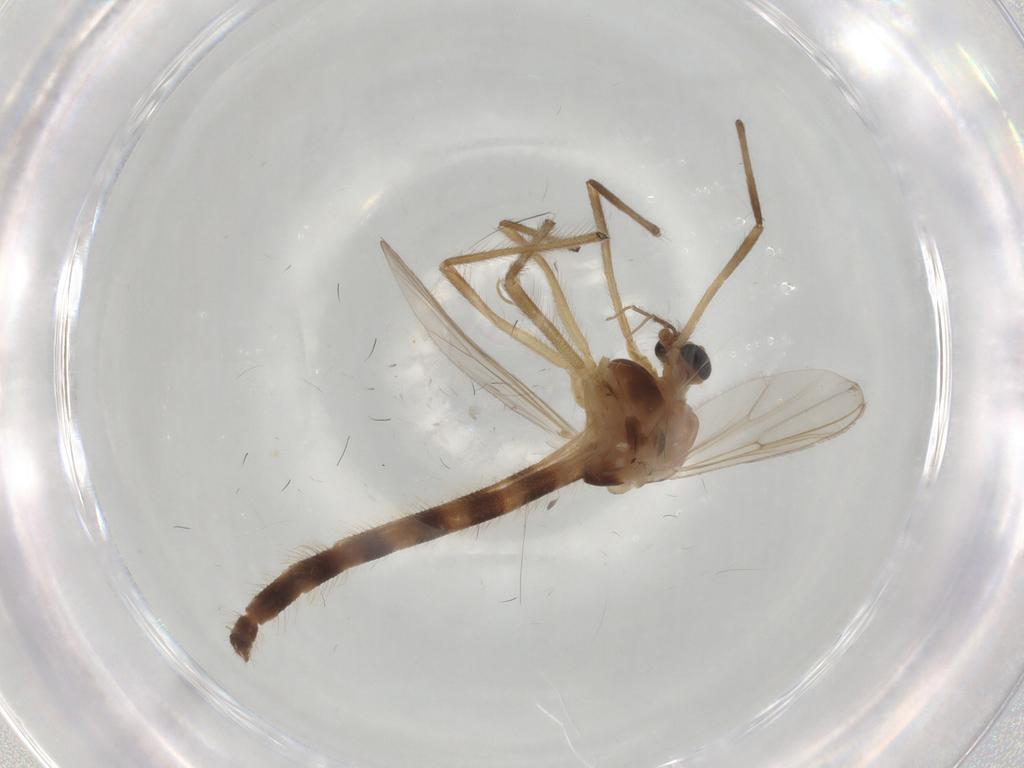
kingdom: Animalia
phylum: Arthropoda
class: Insecta
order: Diptera
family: Chironomidae
